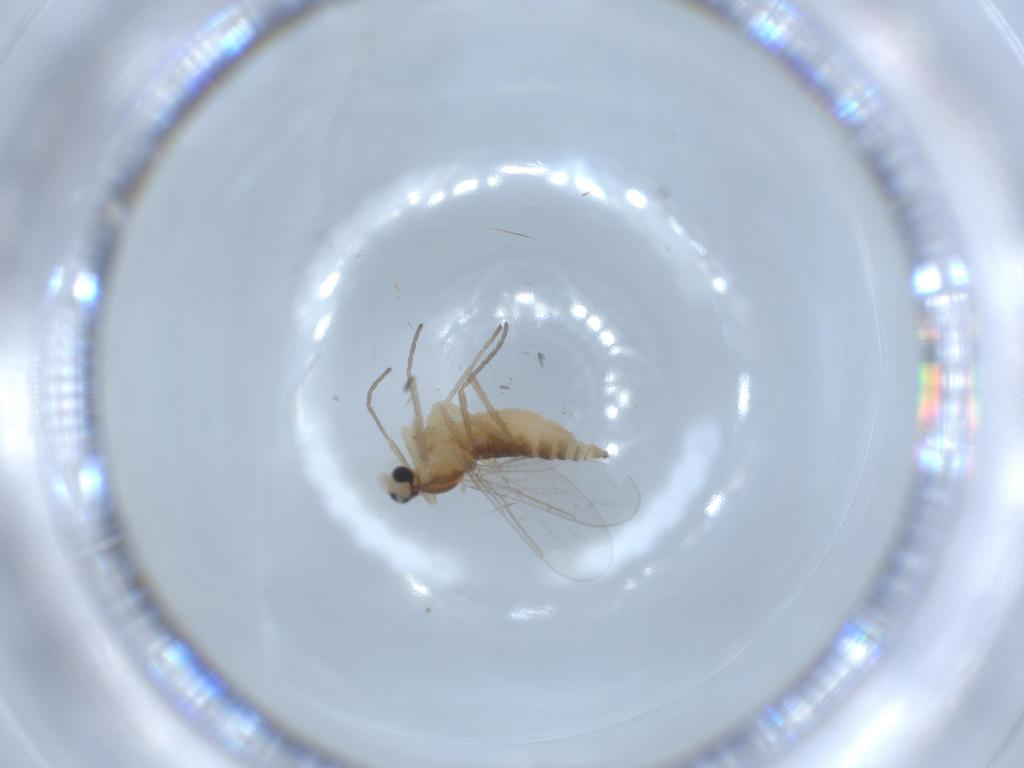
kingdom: Animalia
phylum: Arthropoda
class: Insecta
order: Diptera
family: Cecidomyiidae
